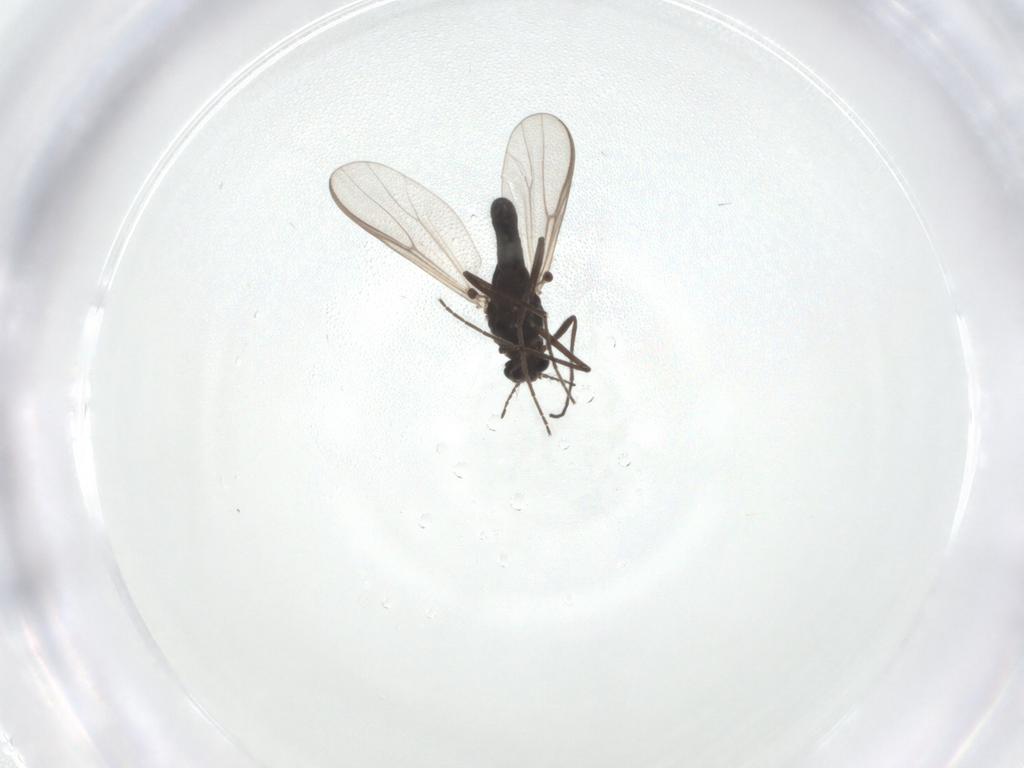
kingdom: Animalia
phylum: Arthropoda
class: Insecta
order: Diptera
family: Chironomidae
